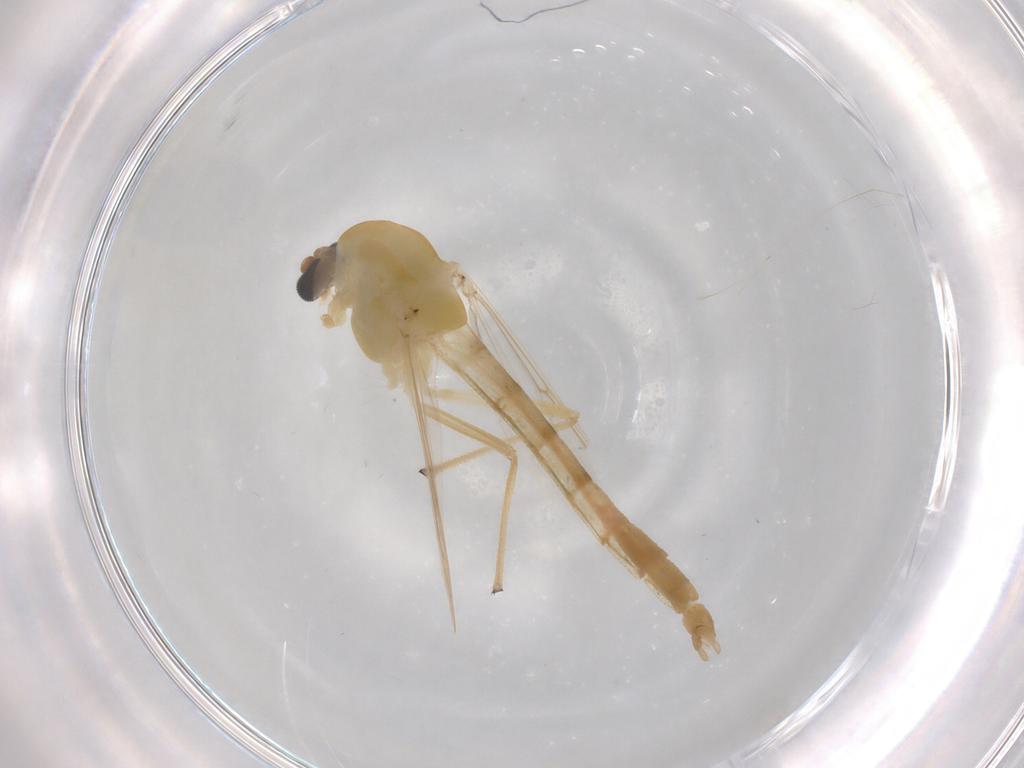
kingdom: Animalia
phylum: Arthropoda
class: Insecta
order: Diptera
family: Chironomidae
